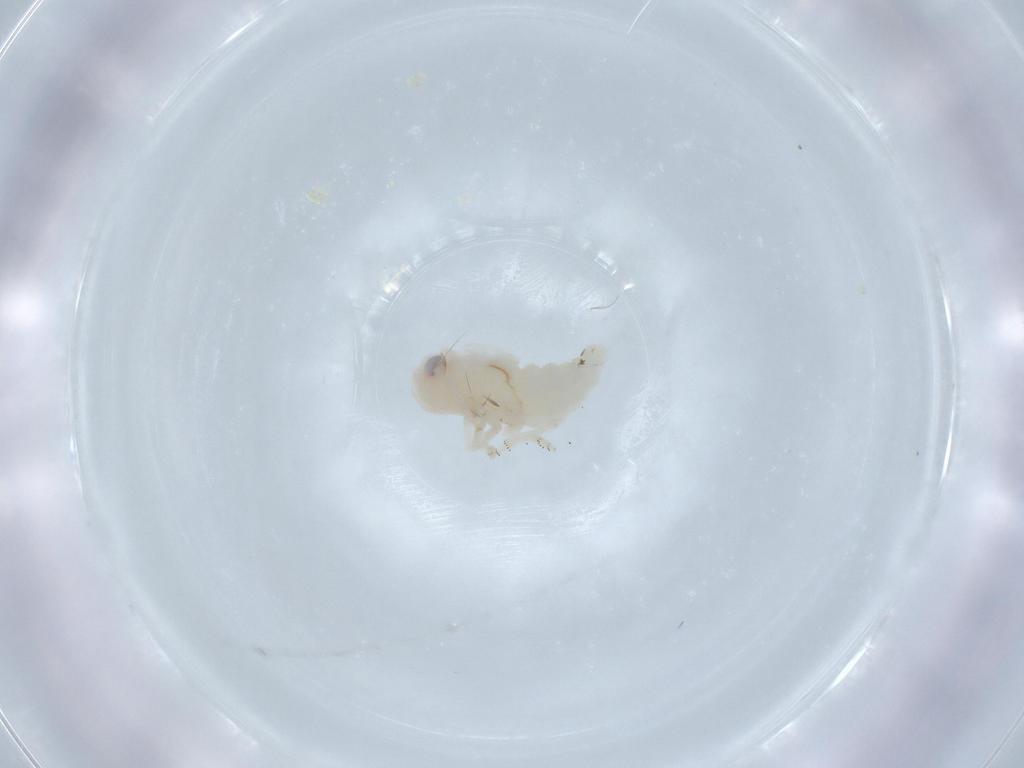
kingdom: Animalia
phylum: Arthropoda
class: Insecta
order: Hemiptera
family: Nogodinidae
